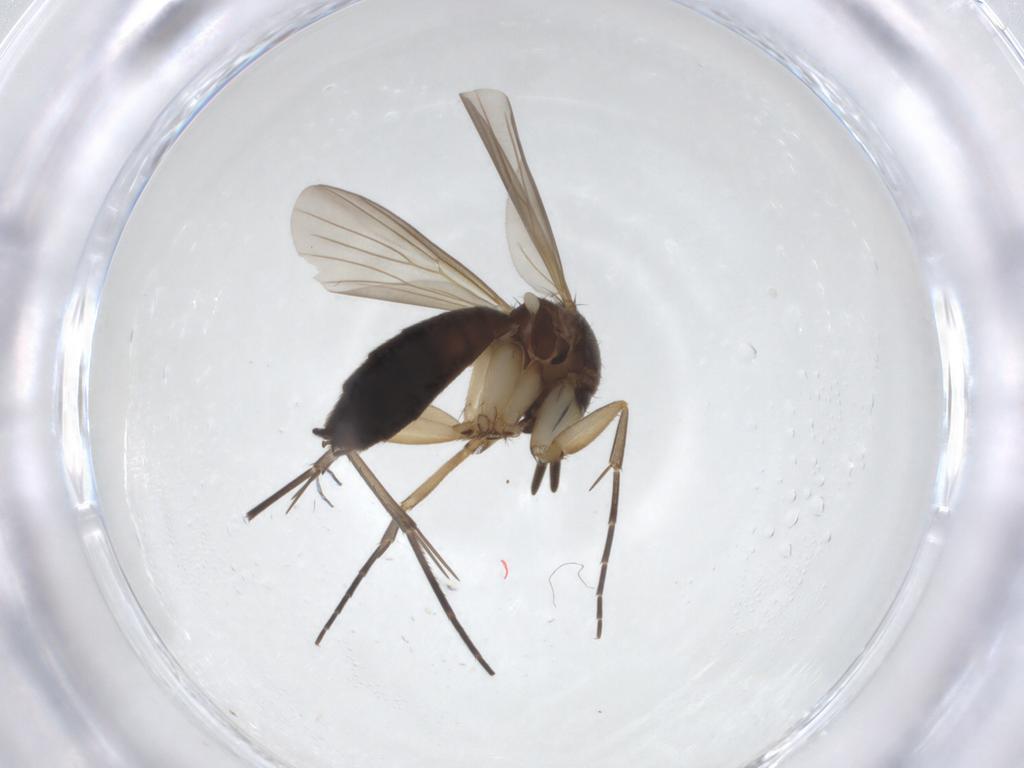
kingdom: Animalia
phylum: Arthropoda
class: Insecta
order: Diptera
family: Mycetophilidae
